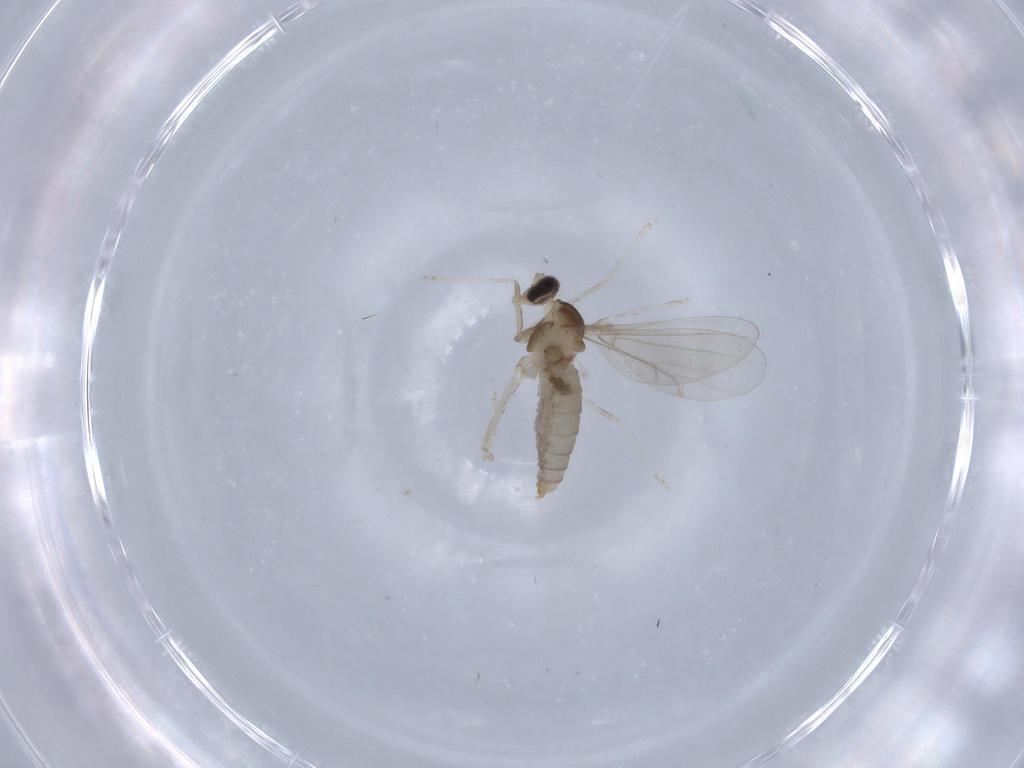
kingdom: Animalia
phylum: Arthropoda
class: Insecta
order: Diptera
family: Cecidomyiidae
